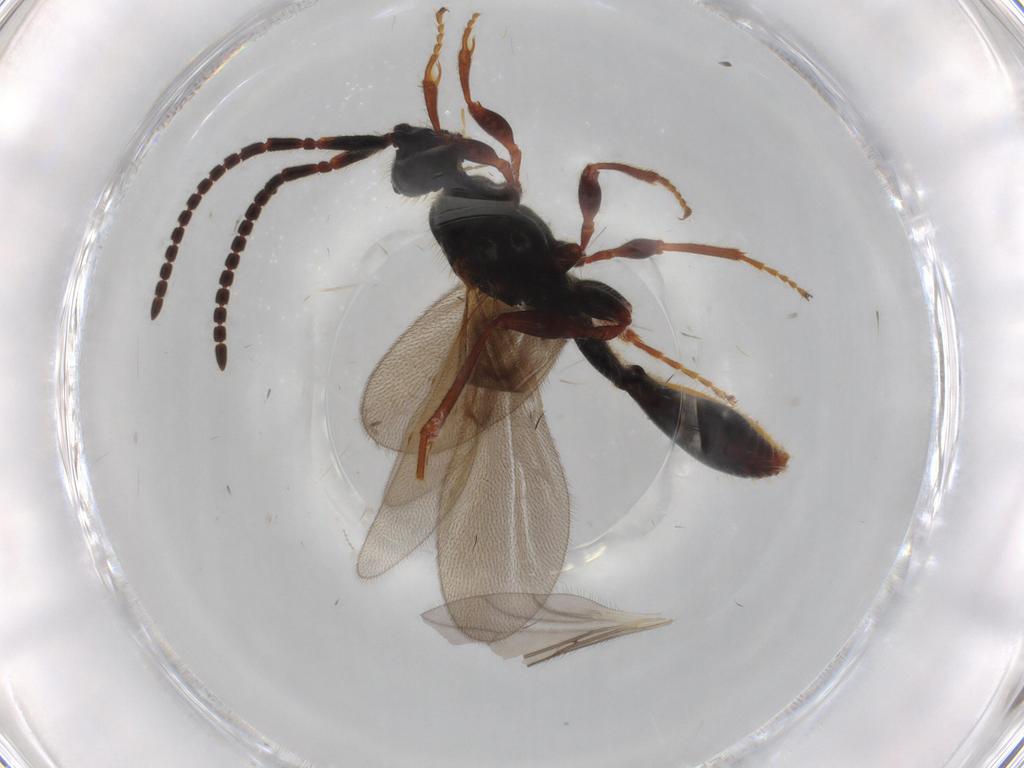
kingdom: Animalia
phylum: Arthropoda
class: Insecta
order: Hymenoptera
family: Diapriidae
